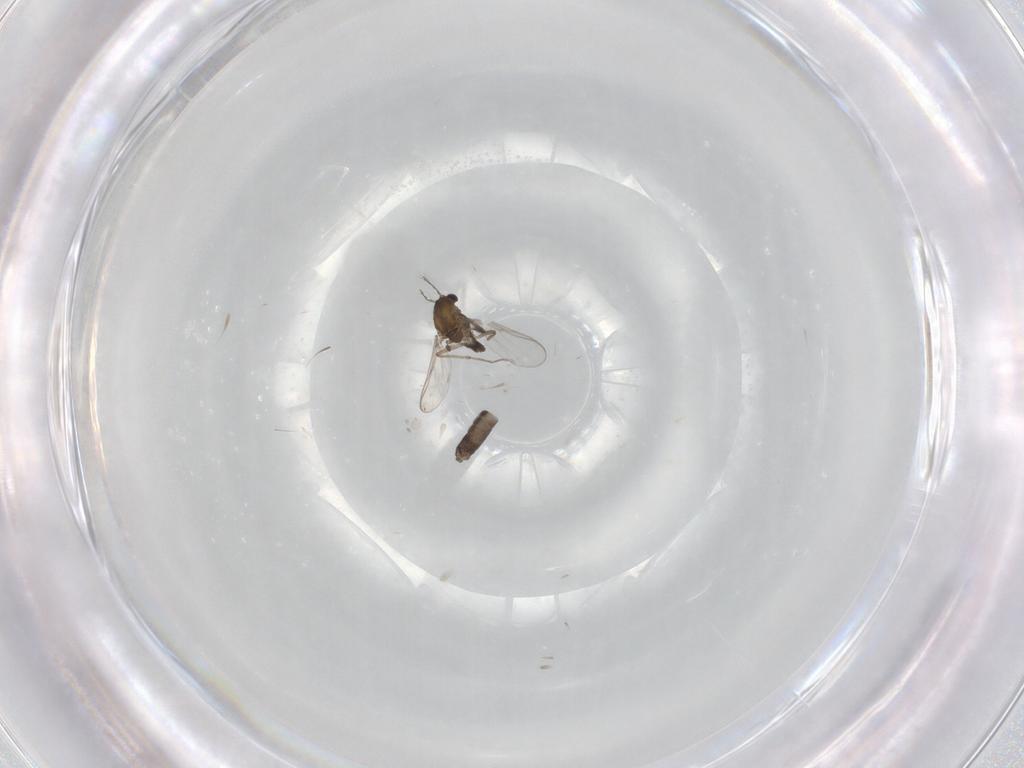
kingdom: Animalia
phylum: Arthropoda
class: Insecta
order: Diptera
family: Chironomidae
